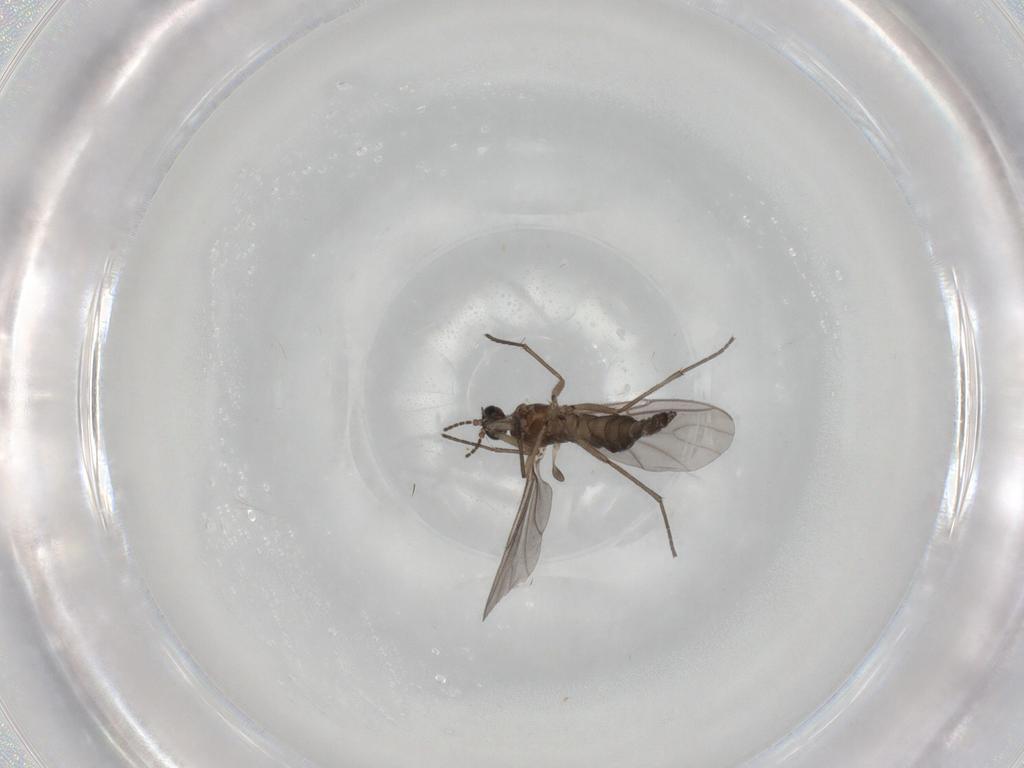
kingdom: Animalia
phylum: Arthropoda
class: Insecta
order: Diptera
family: Sciaridae
